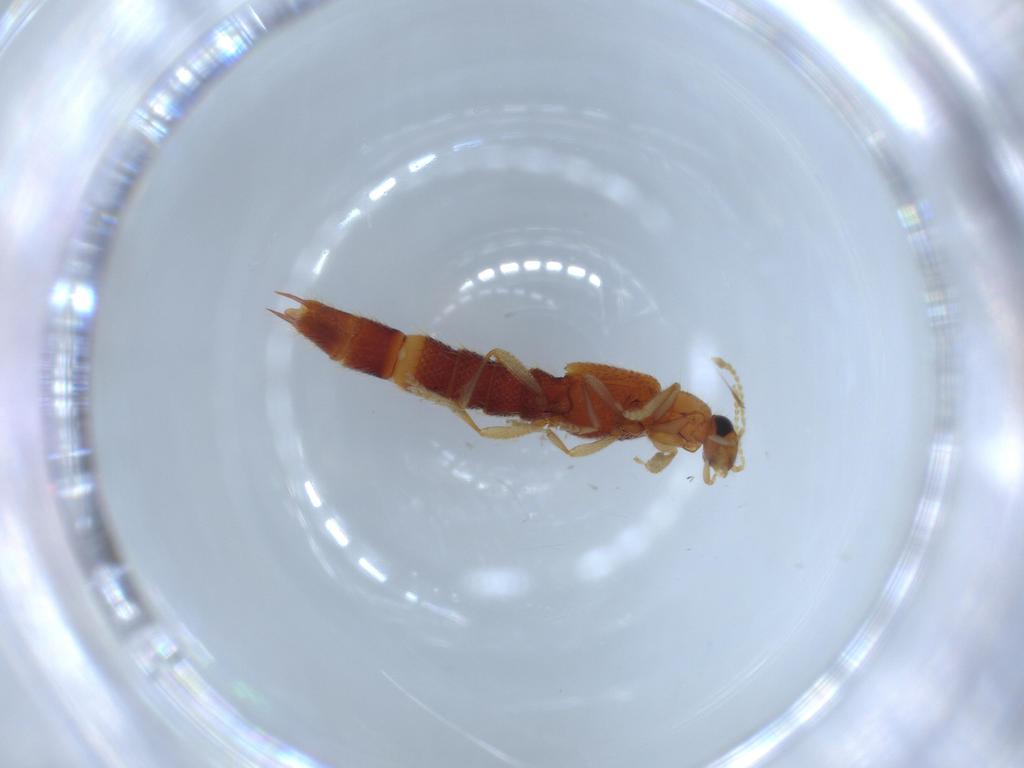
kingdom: Animalia
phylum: Arthropoda
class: Insecta
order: Coleoptera
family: Staphylinidae
